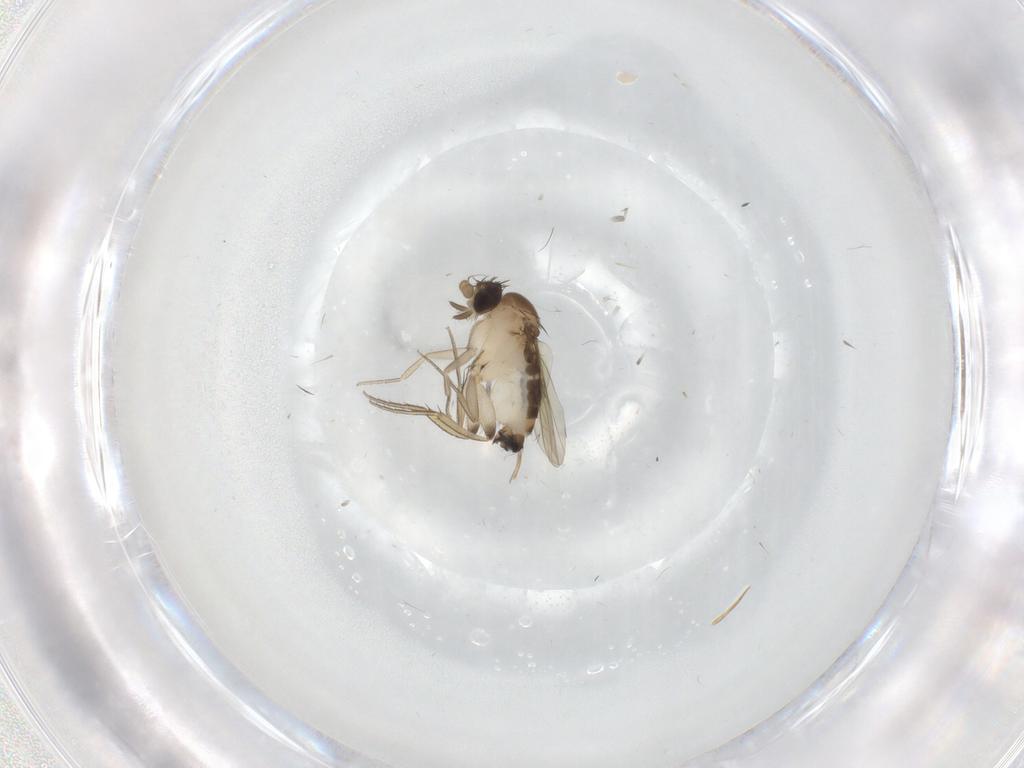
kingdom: Animalia
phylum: Arthropoda
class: Insecta
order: Diptera
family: Phoridae
